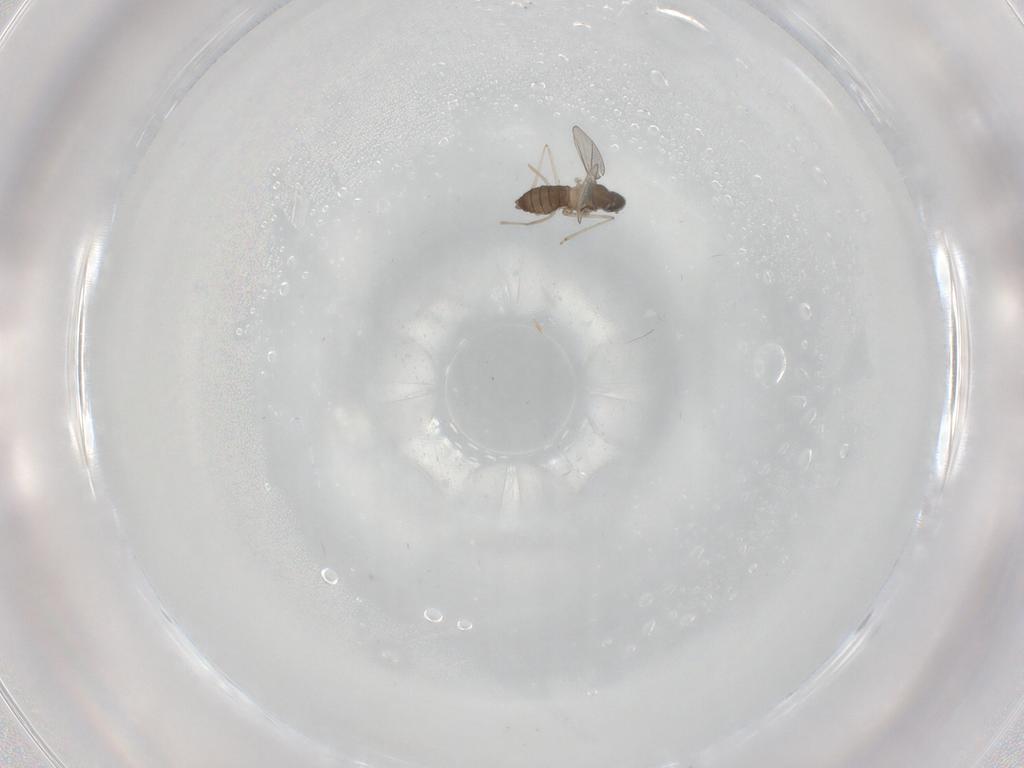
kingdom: Animalia
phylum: Arthropoda
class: Insecta
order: Diptera
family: Cecidomyiidae
